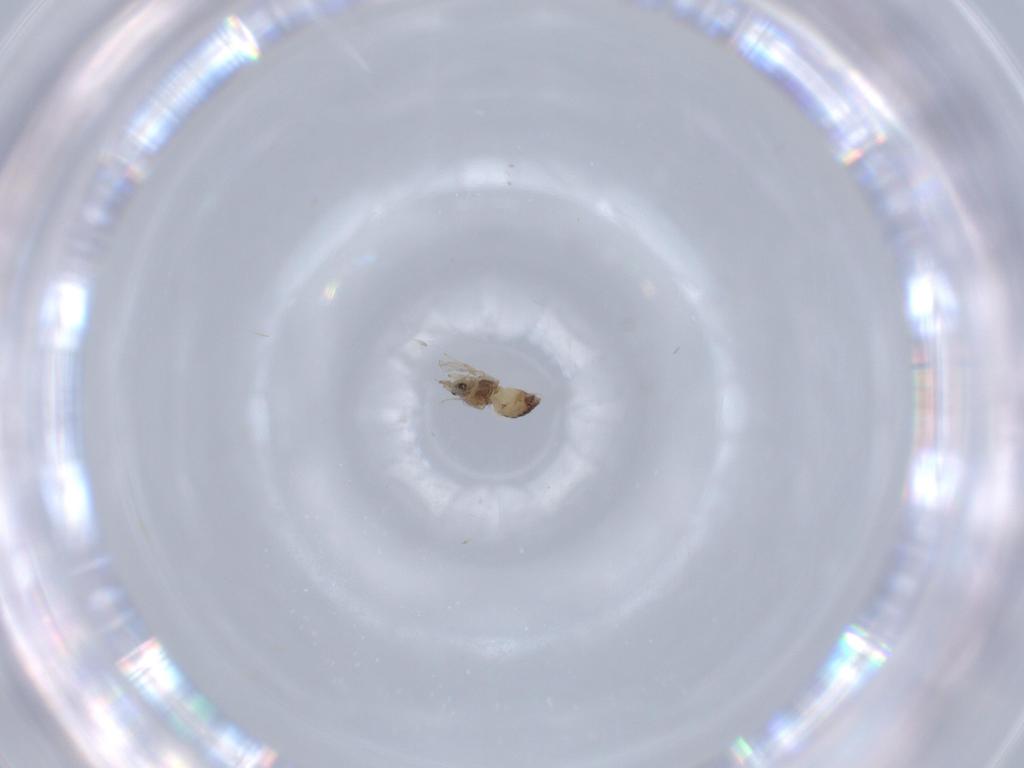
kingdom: Animalia
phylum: Arthropoda
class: Insecta
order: Diptera
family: Chironomidae
